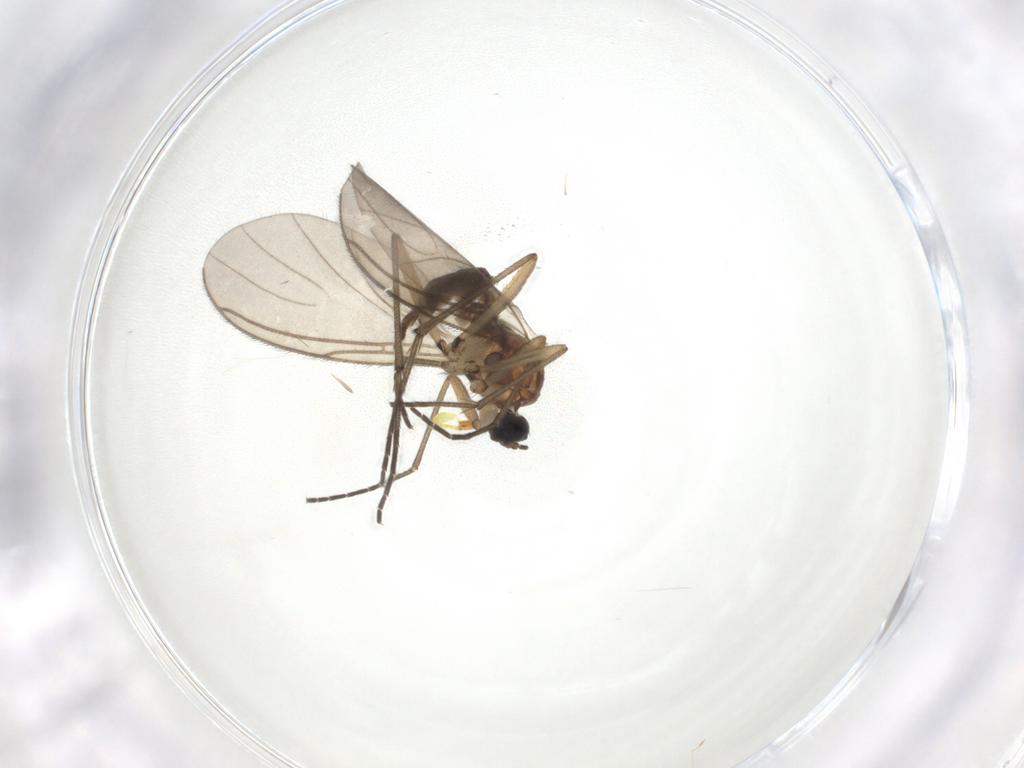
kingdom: Animalia
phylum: Arthropoda
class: Insecta
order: Diptera
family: Sciaridae
